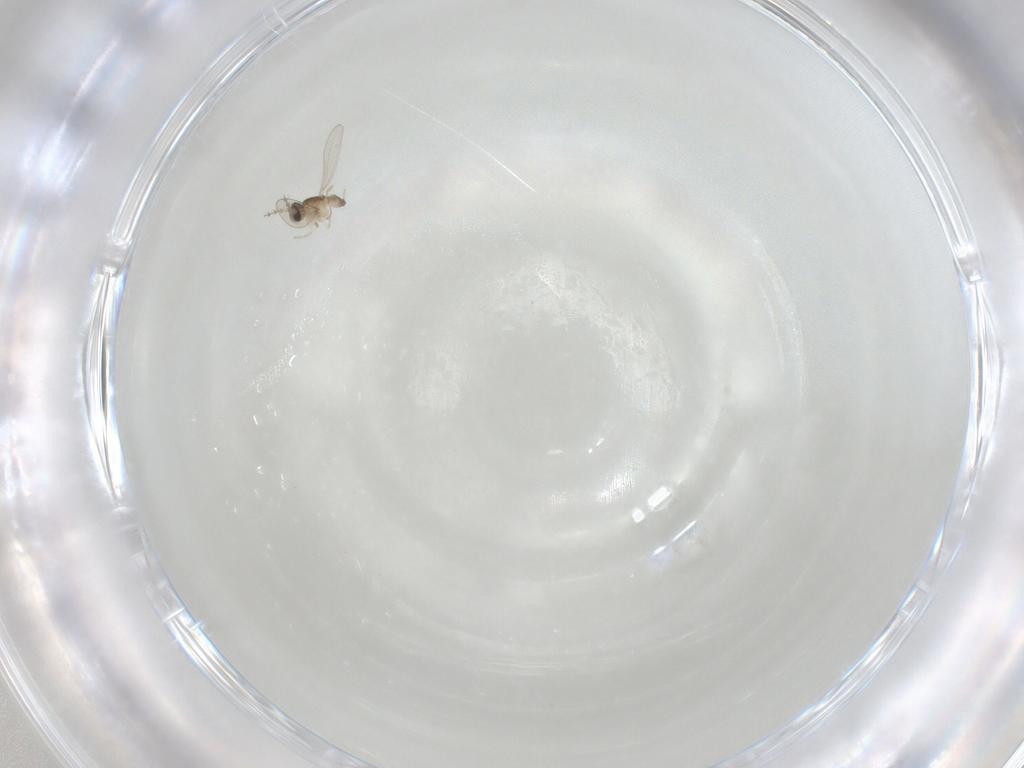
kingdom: Animalia
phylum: Arthropoda
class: Insecta
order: Diptera
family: Cecidomyiidae
